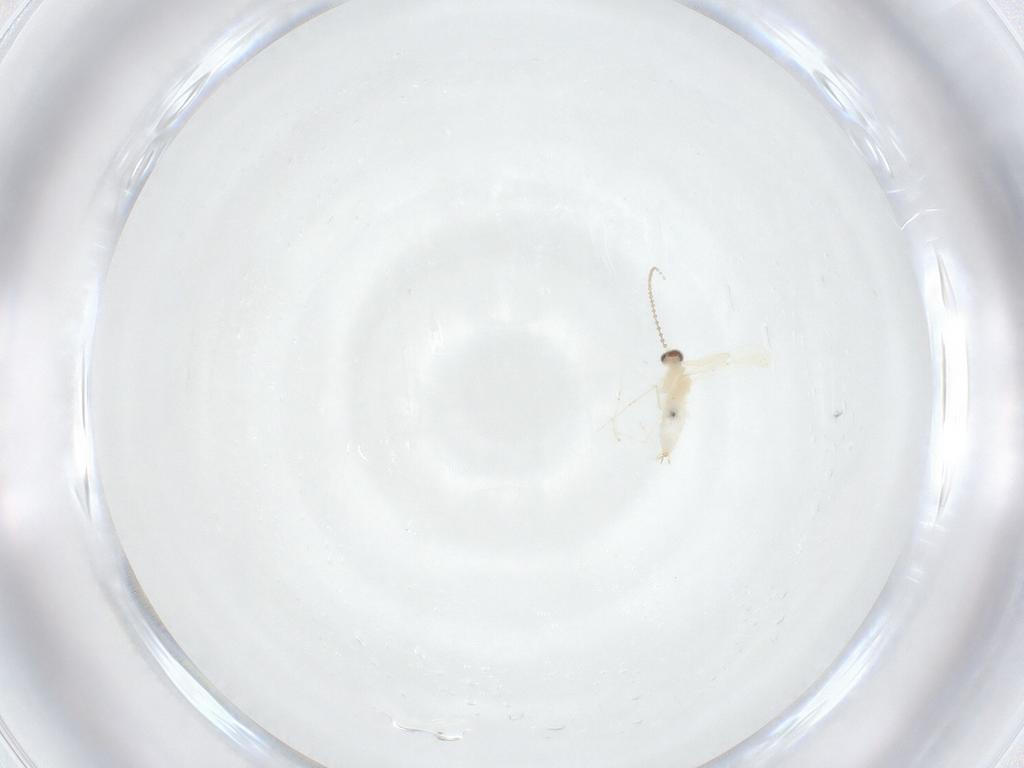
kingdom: Animalia
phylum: Arthropoda
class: Insecta
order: Diptera
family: Cecidomyiidae
